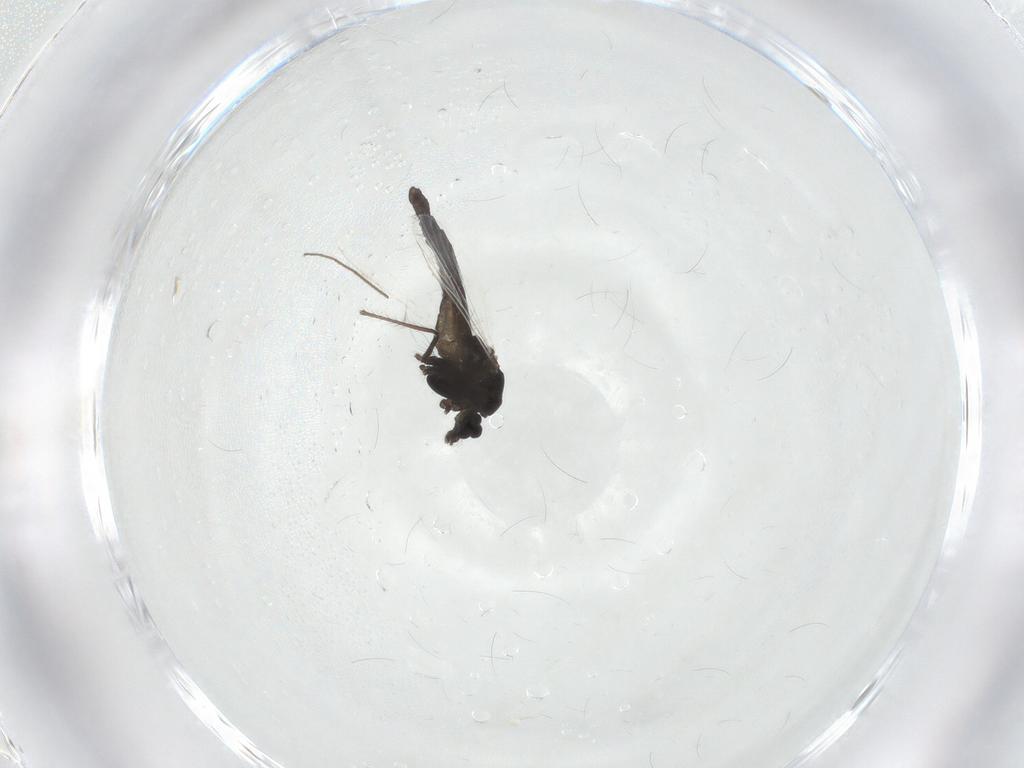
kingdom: Animalia
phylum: Arthropoda
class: Insecta
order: Diptera
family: Chironomidae
